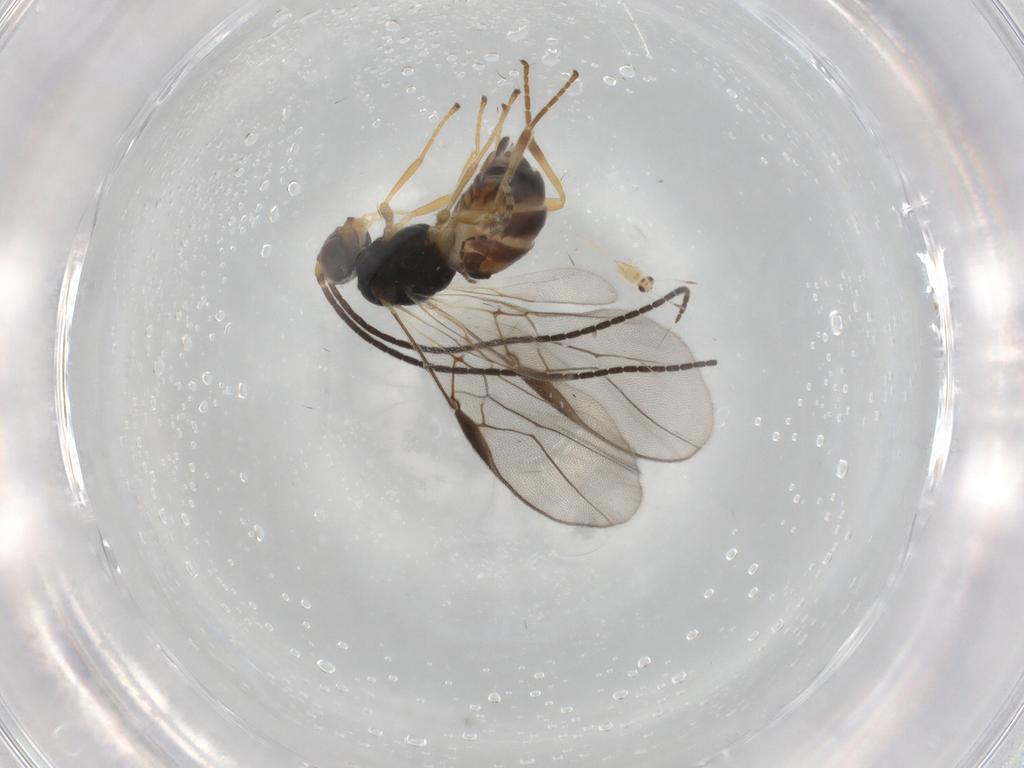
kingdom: Animalia
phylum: Arthropoda
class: Insecta
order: Hymenoptera
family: Braconidae
